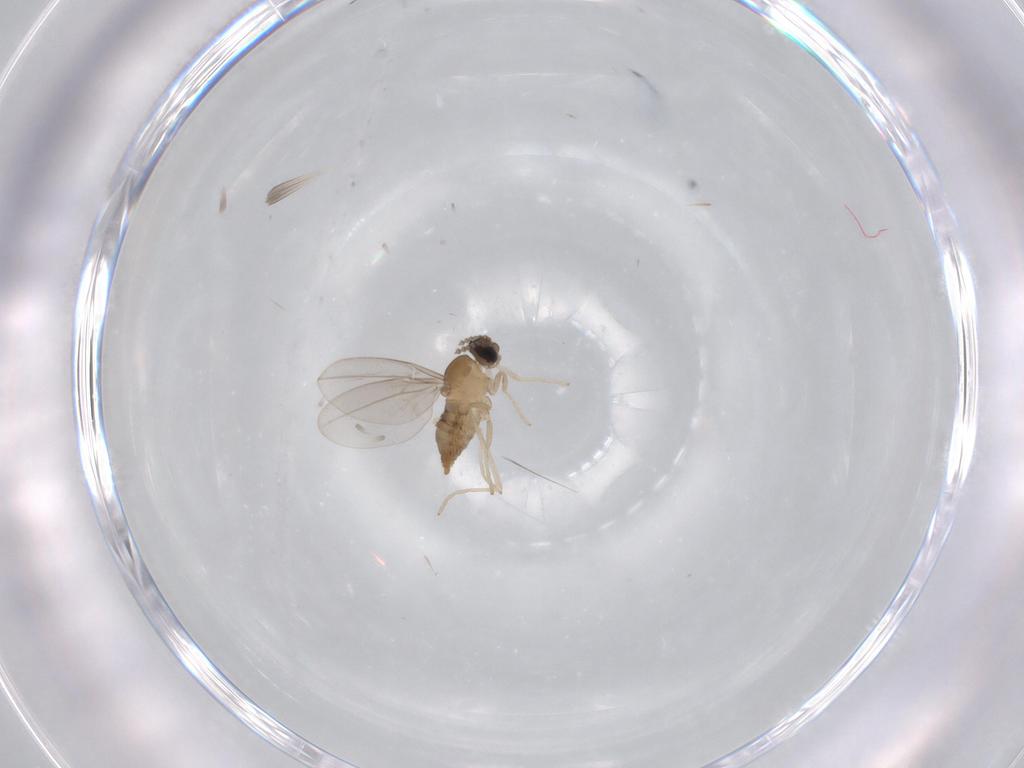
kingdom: Animalia
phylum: Arthropoda
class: Insecta
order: Diptera
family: Cecidomyiidae
